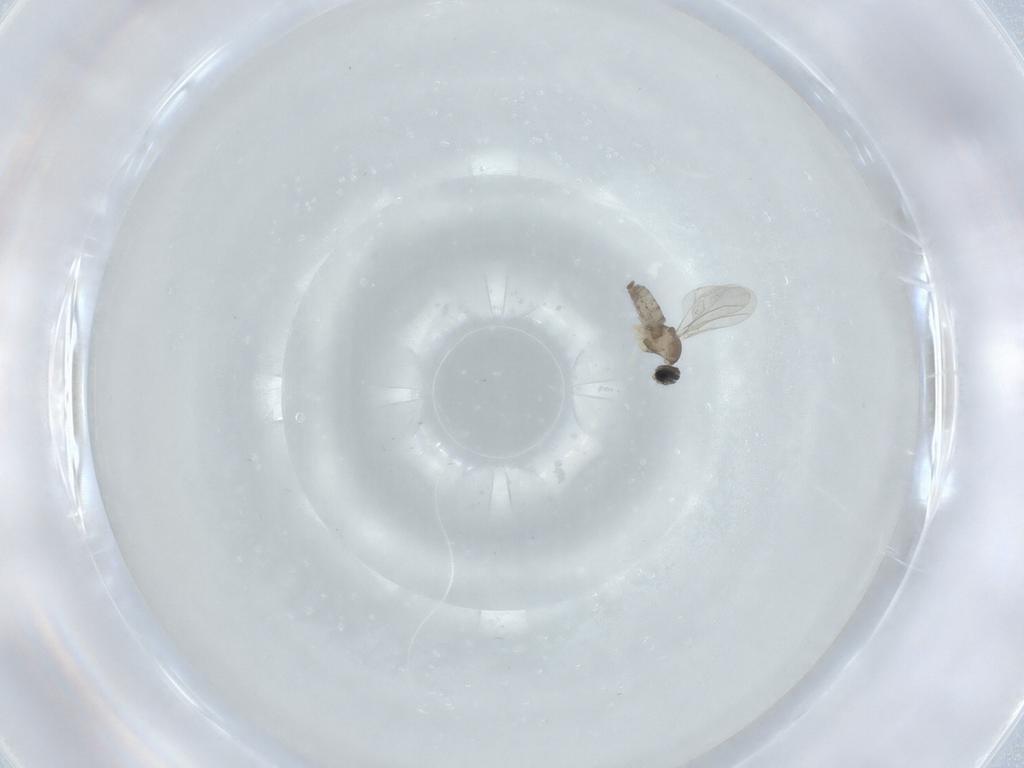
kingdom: Animalia
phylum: Arthropoda
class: Insecta
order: Diptera
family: Cecidomyiidae
